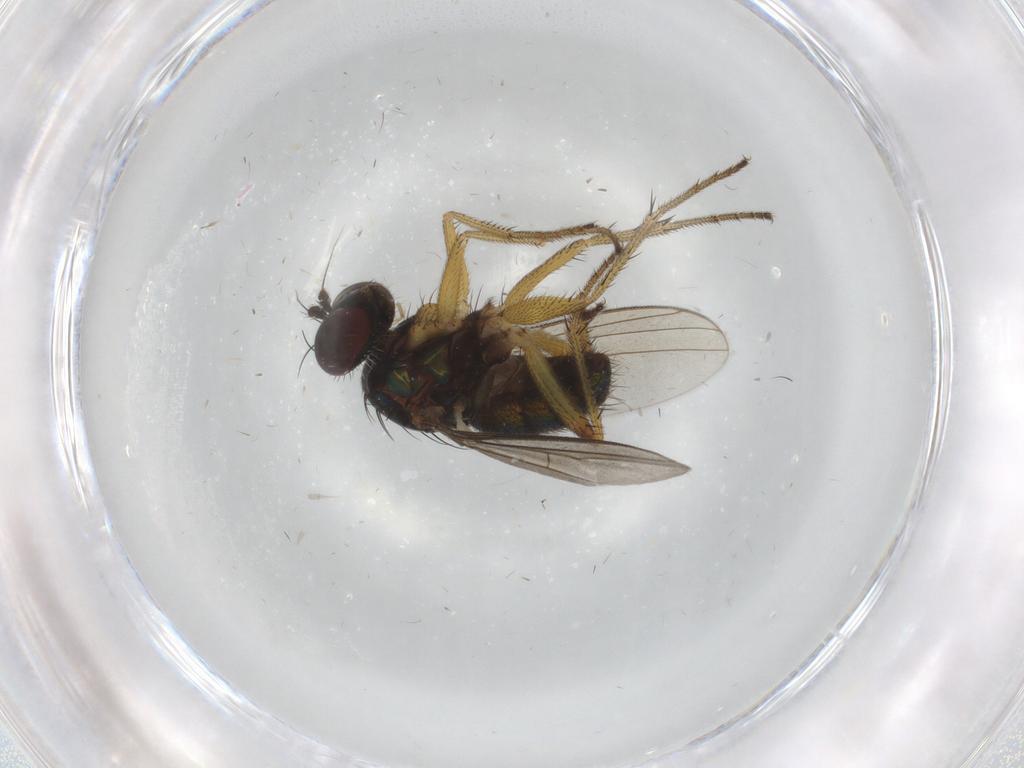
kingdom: Animalia
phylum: Arthropoda
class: Insecta
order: Diptera
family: Dolichopodidae
